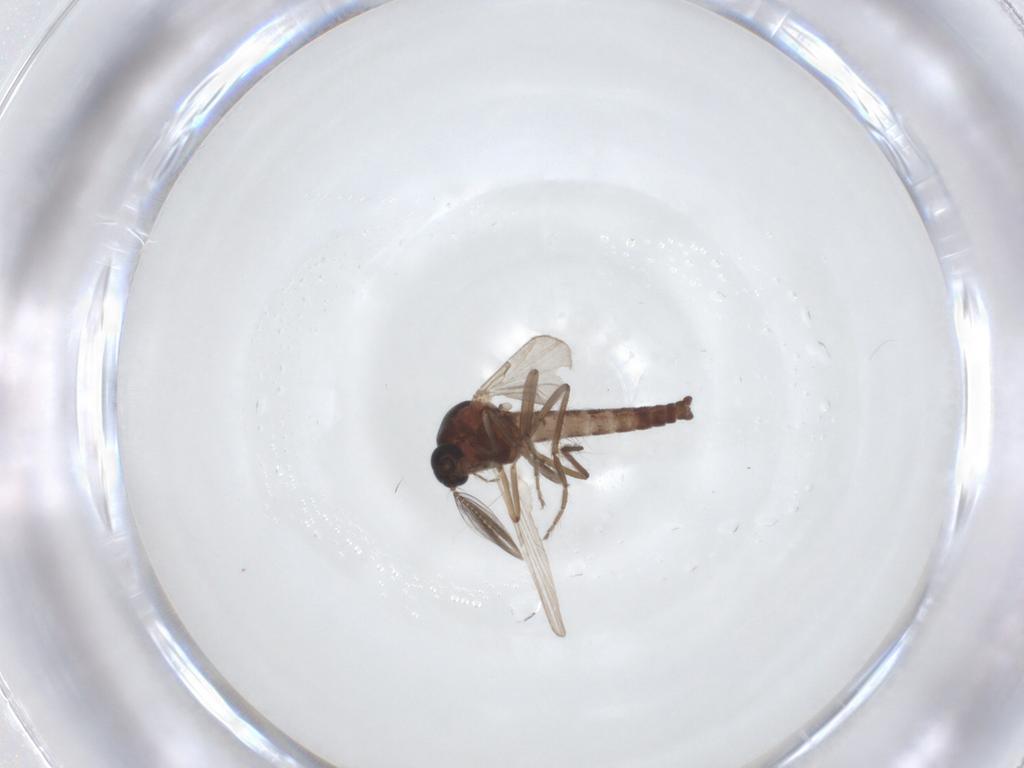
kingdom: Animalia
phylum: Arthropoda
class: Insecta
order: Diptera
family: Ceratopogonidae
